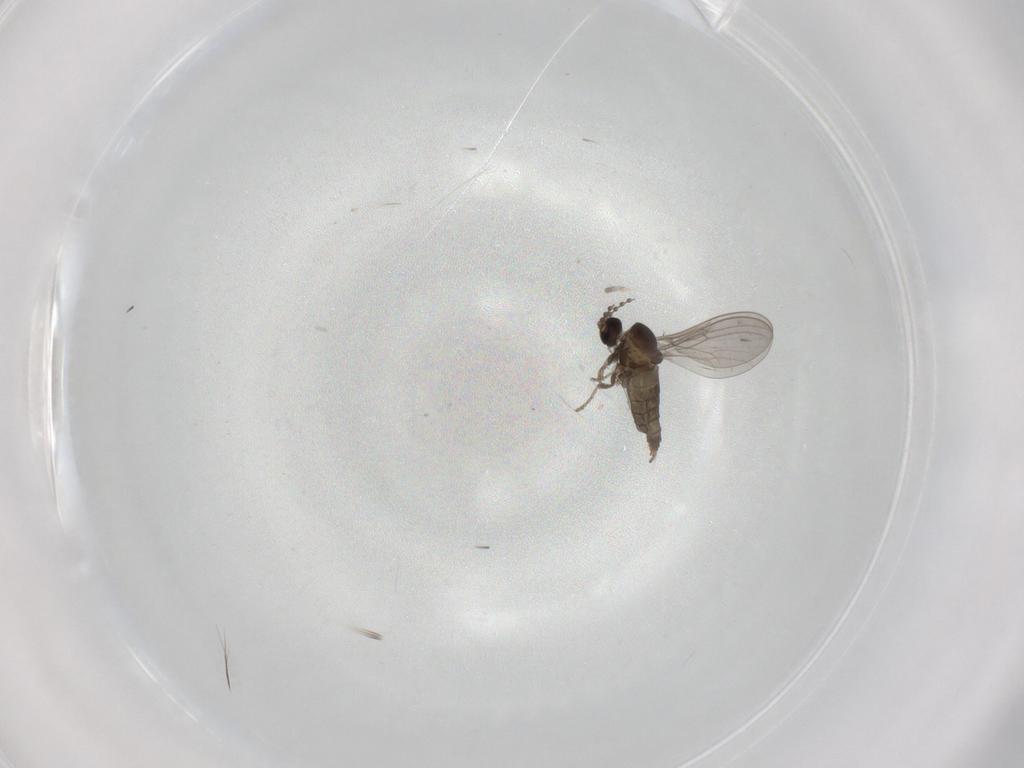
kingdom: Animalia
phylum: Arthropoda
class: Insecta
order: Diptera
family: Cecidomyiidae
